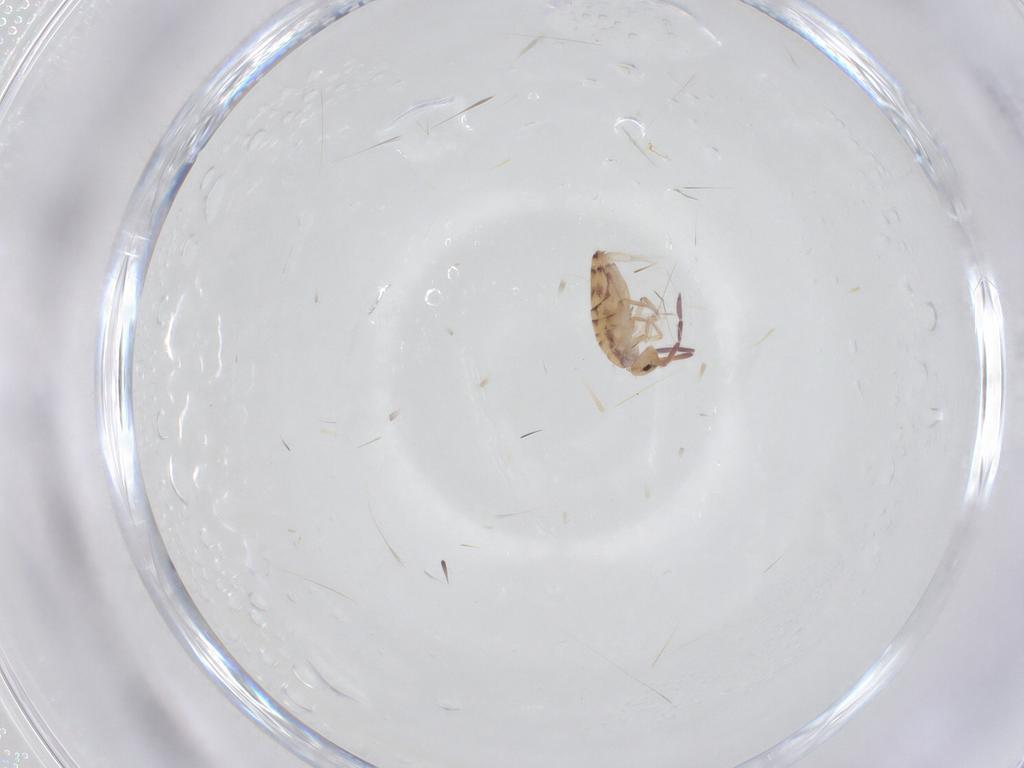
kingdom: Animalia
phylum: Arthropoda
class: Collembola
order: Entomobryomorpha
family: Entomobryidae
